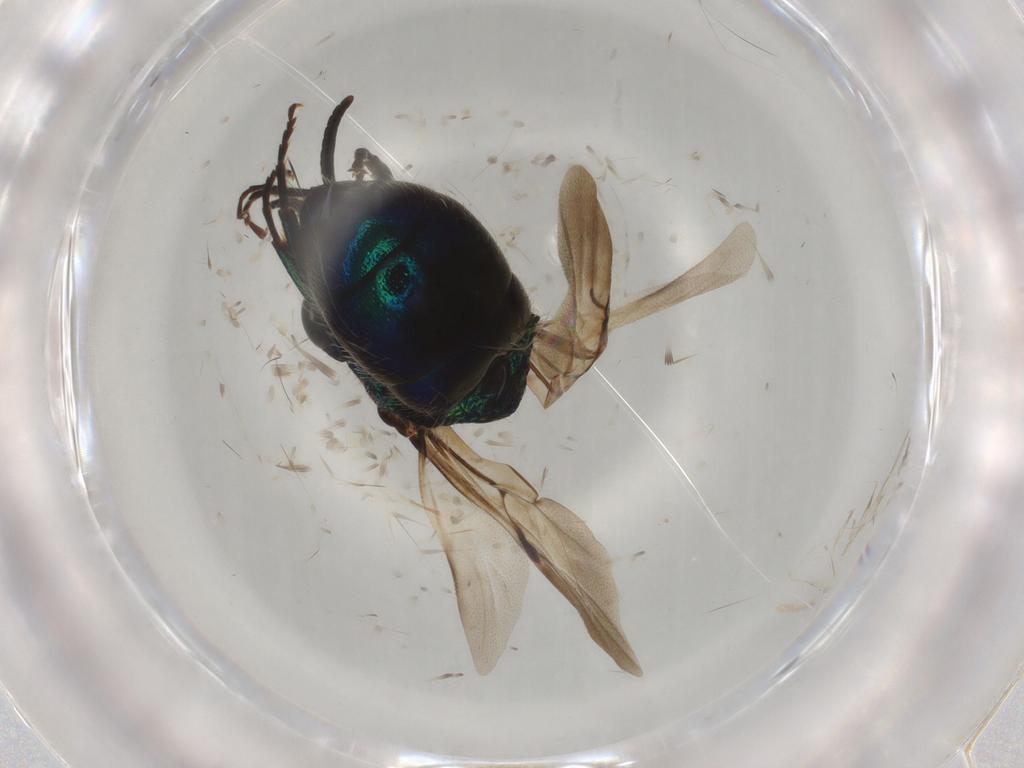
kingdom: Animalia
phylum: Arthropoda
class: Insecta
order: Hymenoptera
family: Chrysididae
